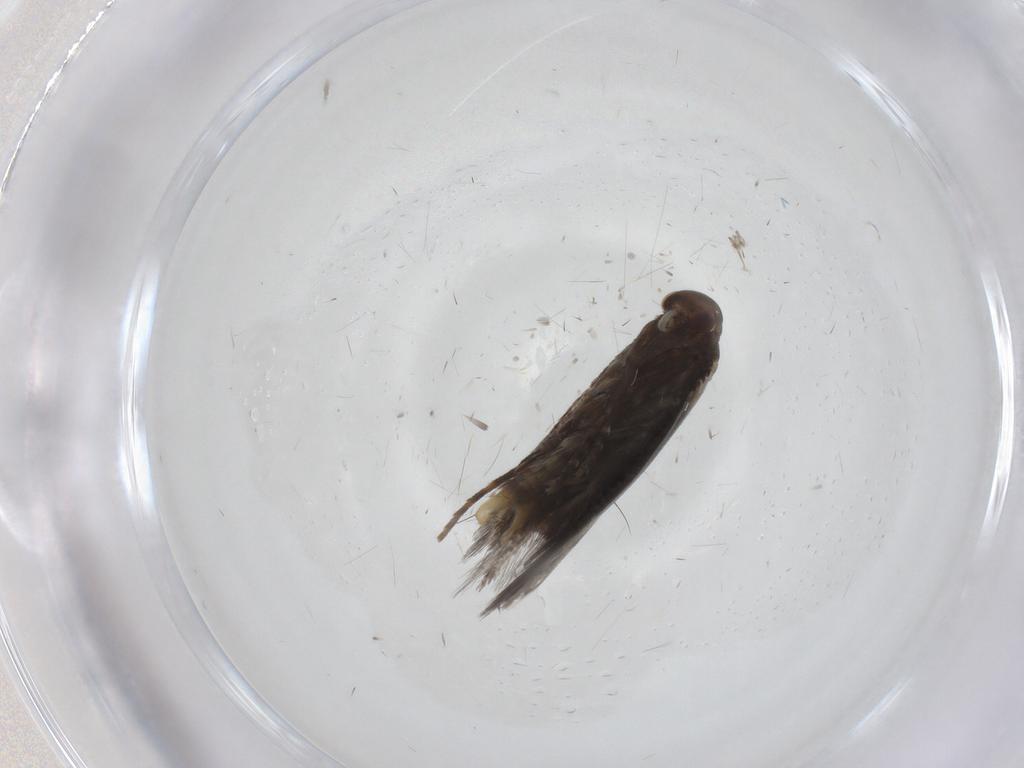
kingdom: Animalia
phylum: Arthropoda
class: Insecta
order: Lepidoptera
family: Elachistidae
